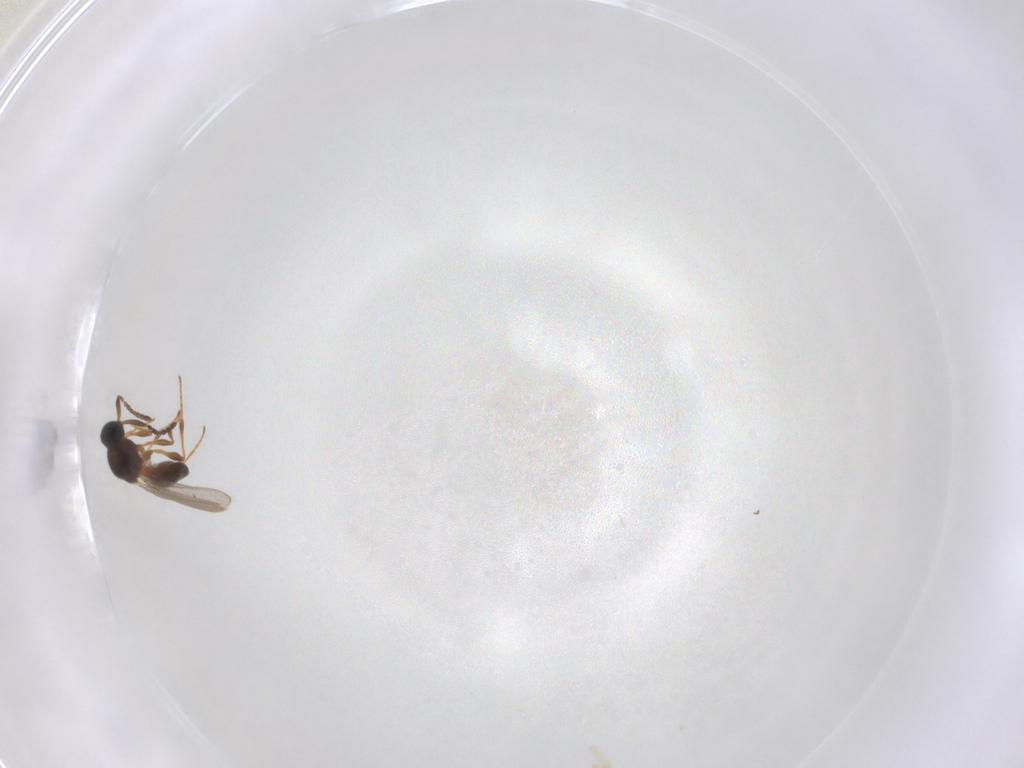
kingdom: Animalia
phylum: Arthropoda
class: Insecta
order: Hymenoptera
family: Platygastridae
